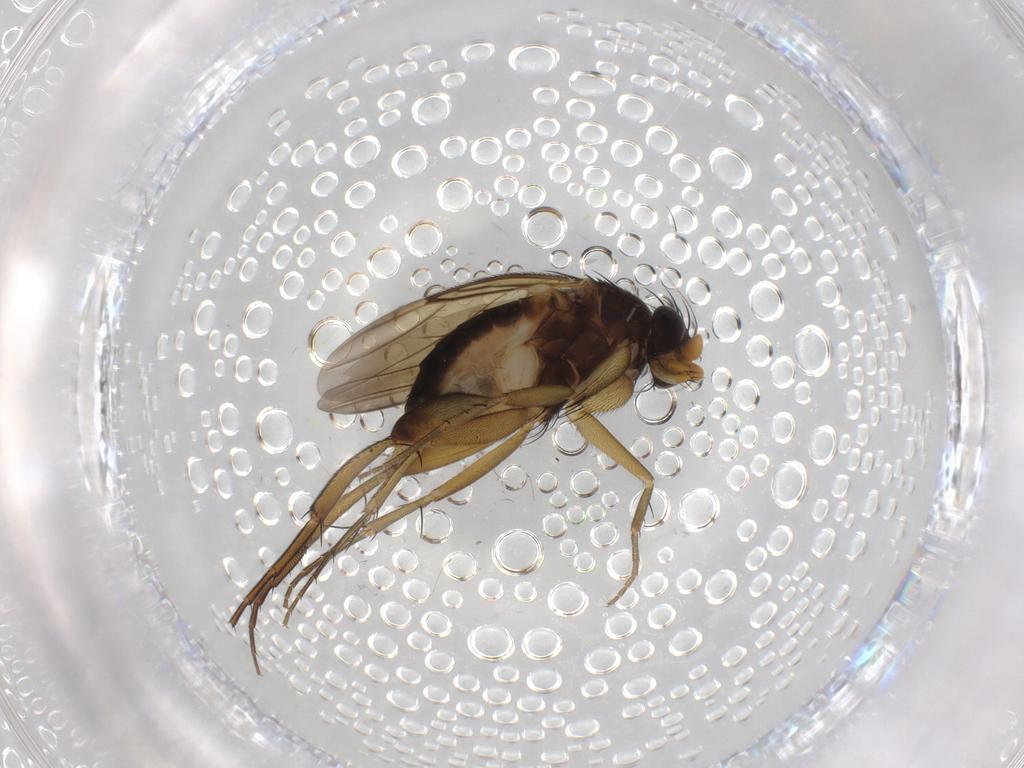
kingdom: Animalia
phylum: Arthropoda
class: Insecta
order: Diptera
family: Phoridae
